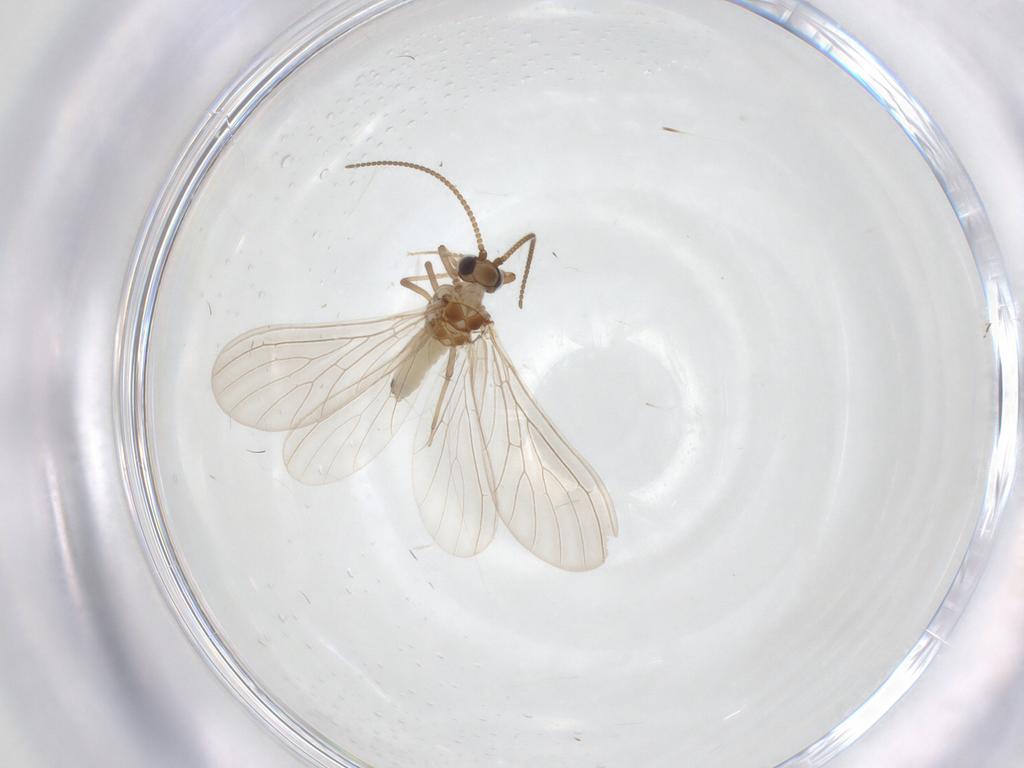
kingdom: Animalia
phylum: Arthropoda
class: Insecta
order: Neuroptera
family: Coniopterygidae
